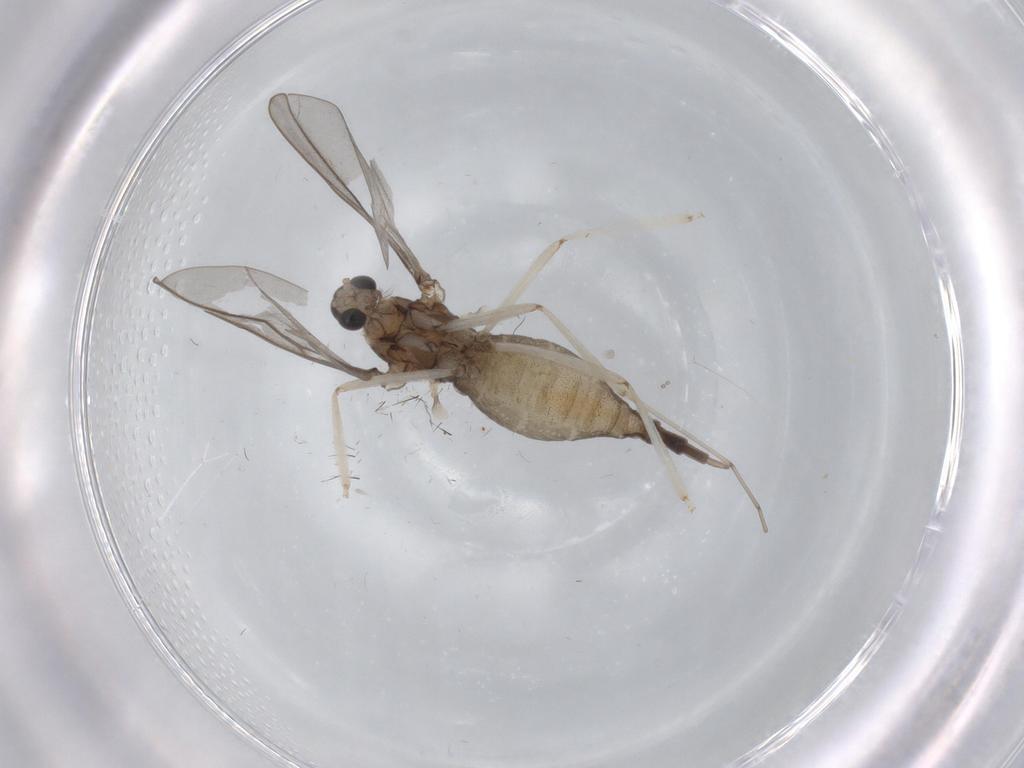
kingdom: Animalia
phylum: Arthropoda
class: Insecta
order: Diptera
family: Cecidomyiidae
